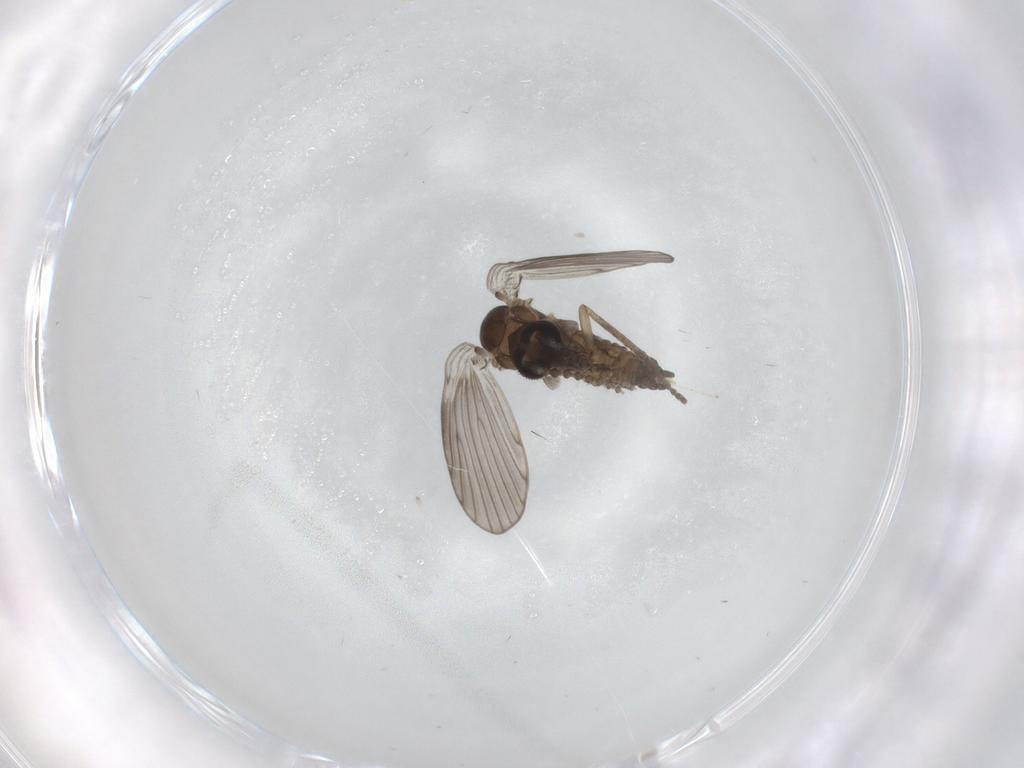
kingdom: Animalia
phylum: Arthropoda
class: Insecta
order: Diptera
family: Psychodidae
